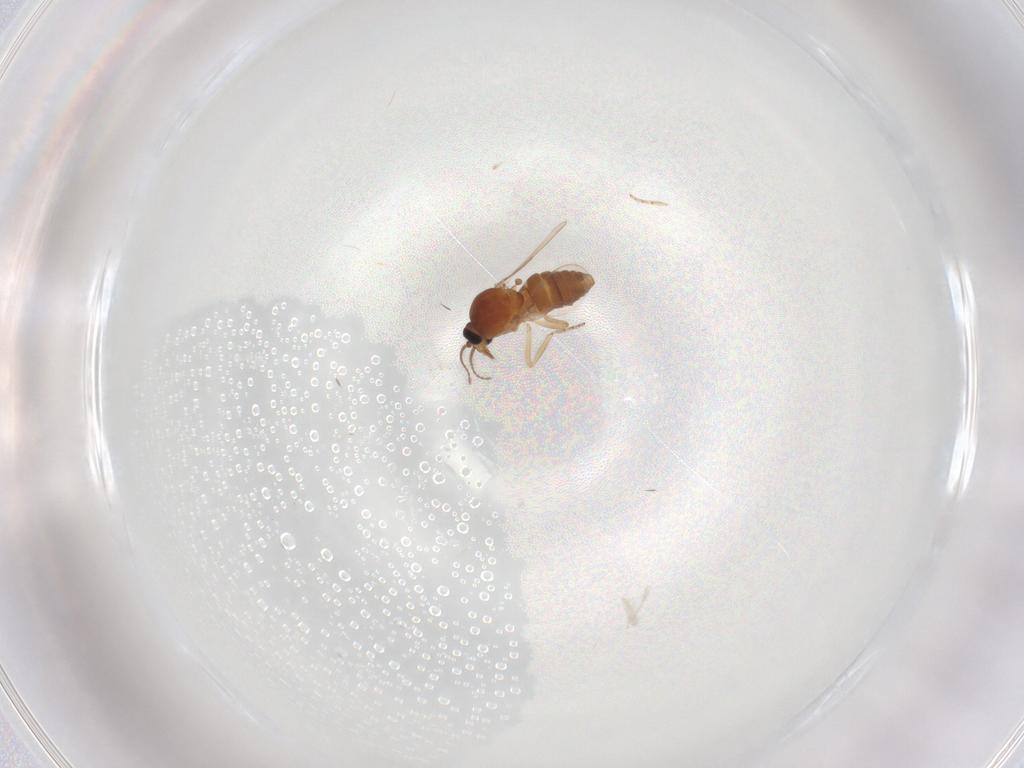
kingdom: Animalia
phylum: Arthropoda
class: Insecta
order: Diptera
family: Ceratopogonidae
